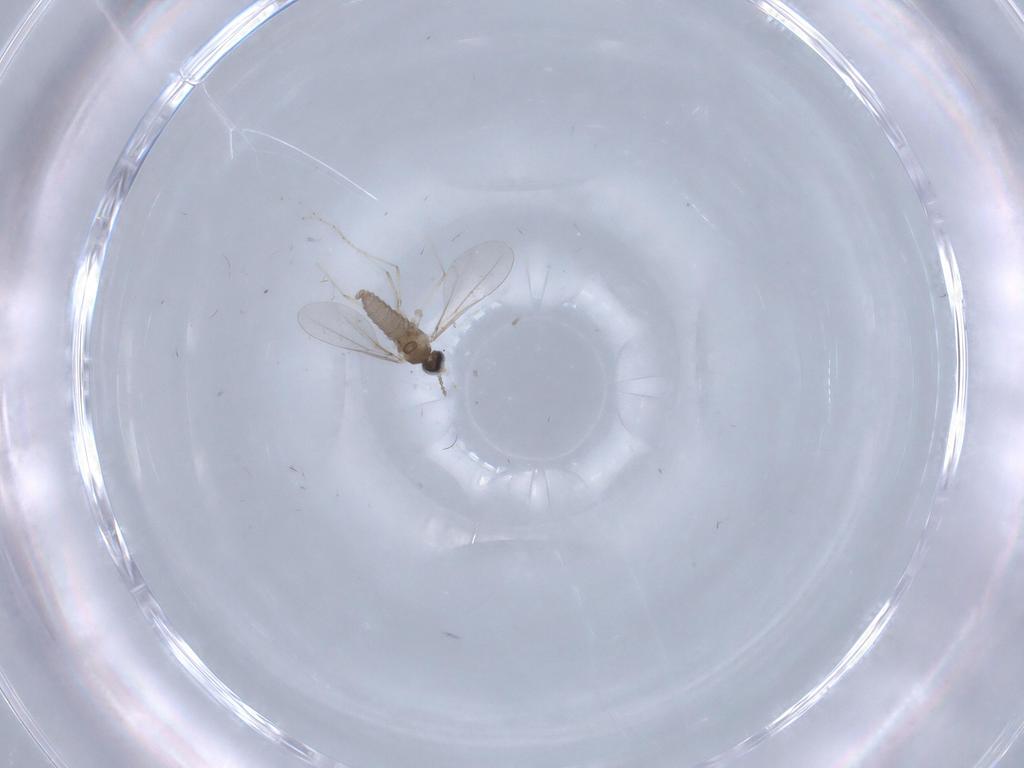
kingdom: Animalia
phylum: Arthropoda
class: Insecta
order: Diptera
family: Cecidomyiidae
